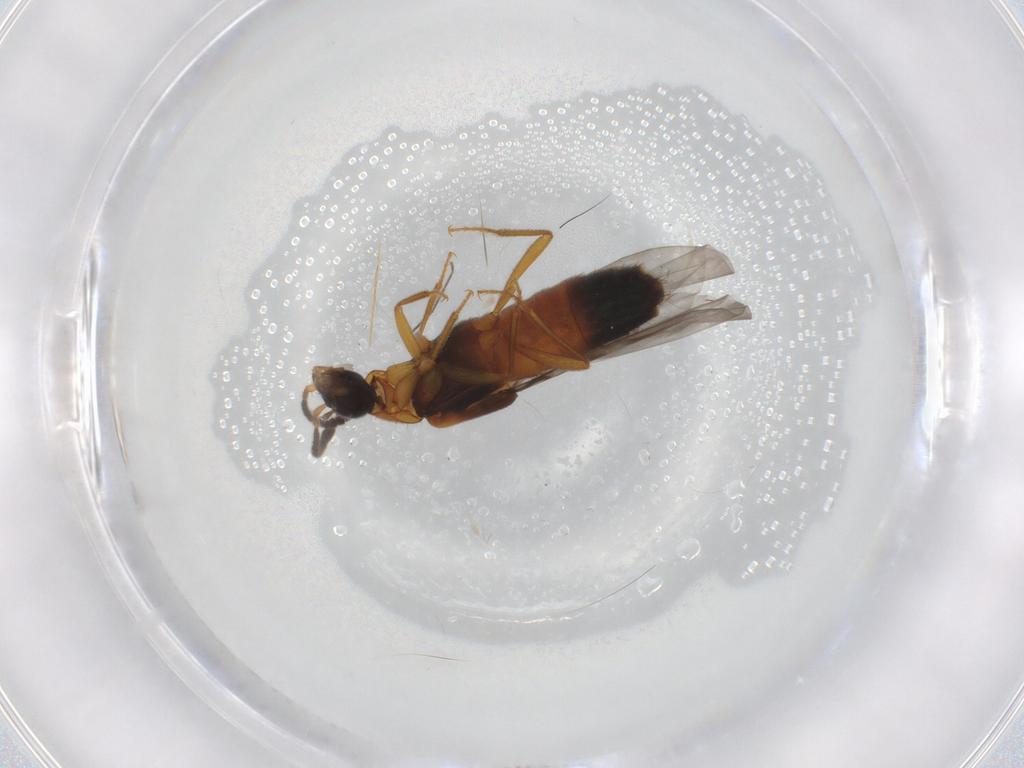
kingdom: Animalia
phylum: Arthropoda
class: Insecta
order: Coleoptera
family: Staphylinidae
